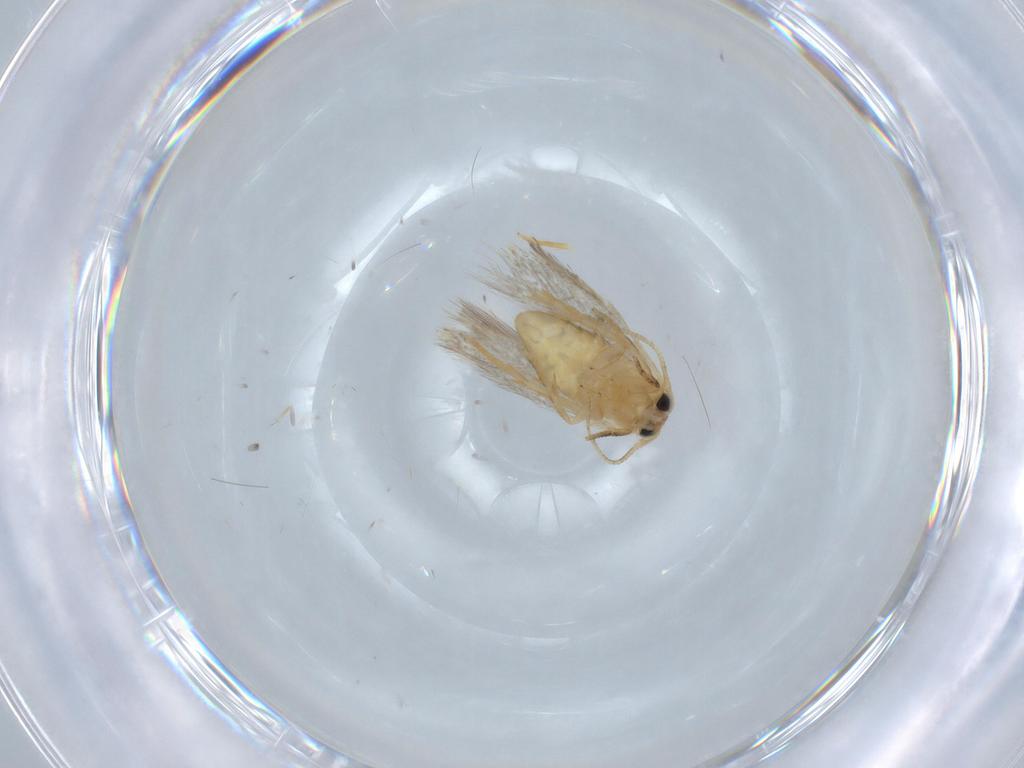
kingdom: Animalia
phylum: Arthropoda
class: Insecta
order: Lepidoptera
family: Nepticulidae
